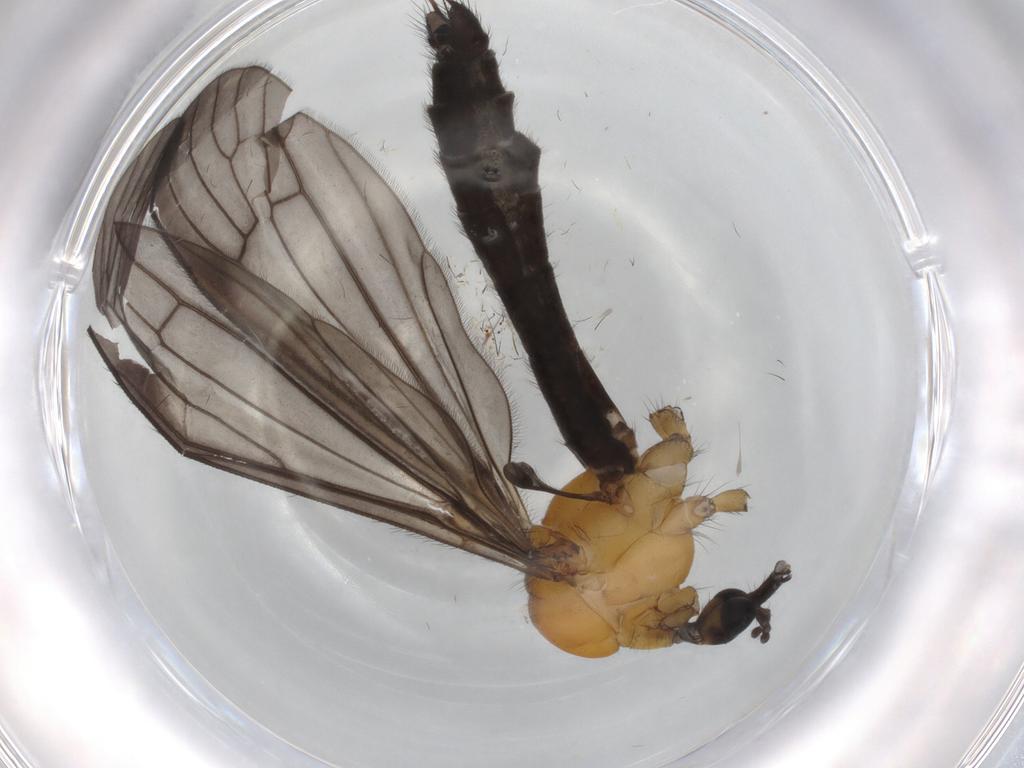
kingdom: Animalia
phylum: Arthropoda
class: Insecta
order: Diptera
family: Limoniidae
